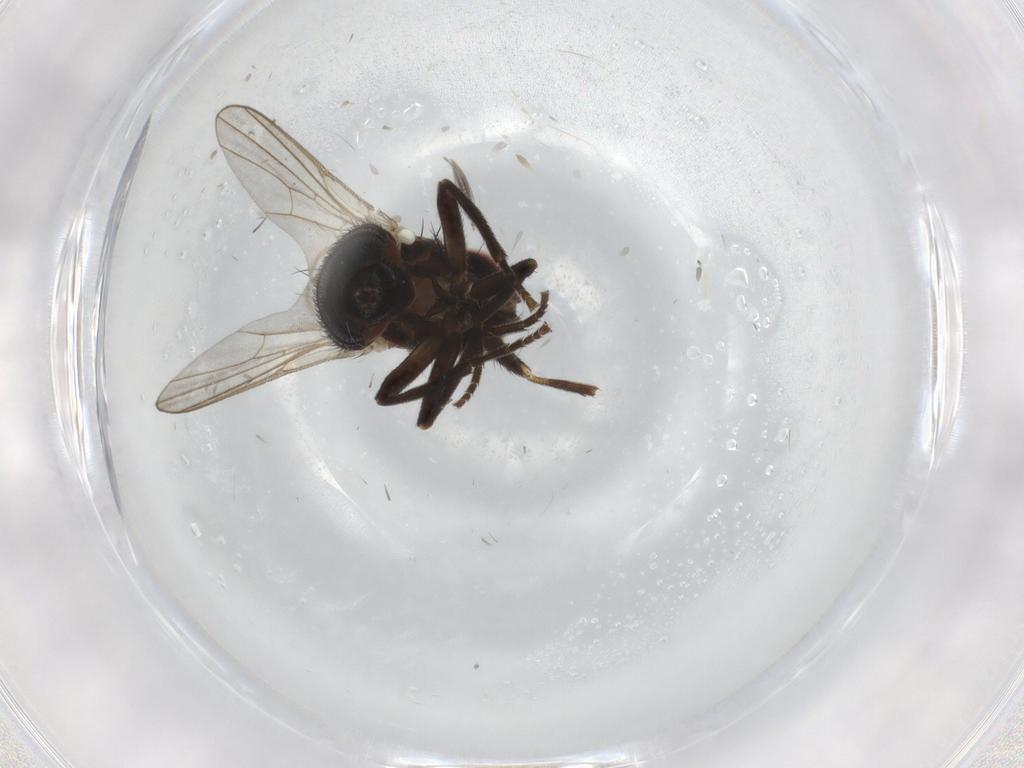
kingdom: Animalia
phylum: Arthropoda
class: Insecta
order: Diptera
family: Agromyzidae
